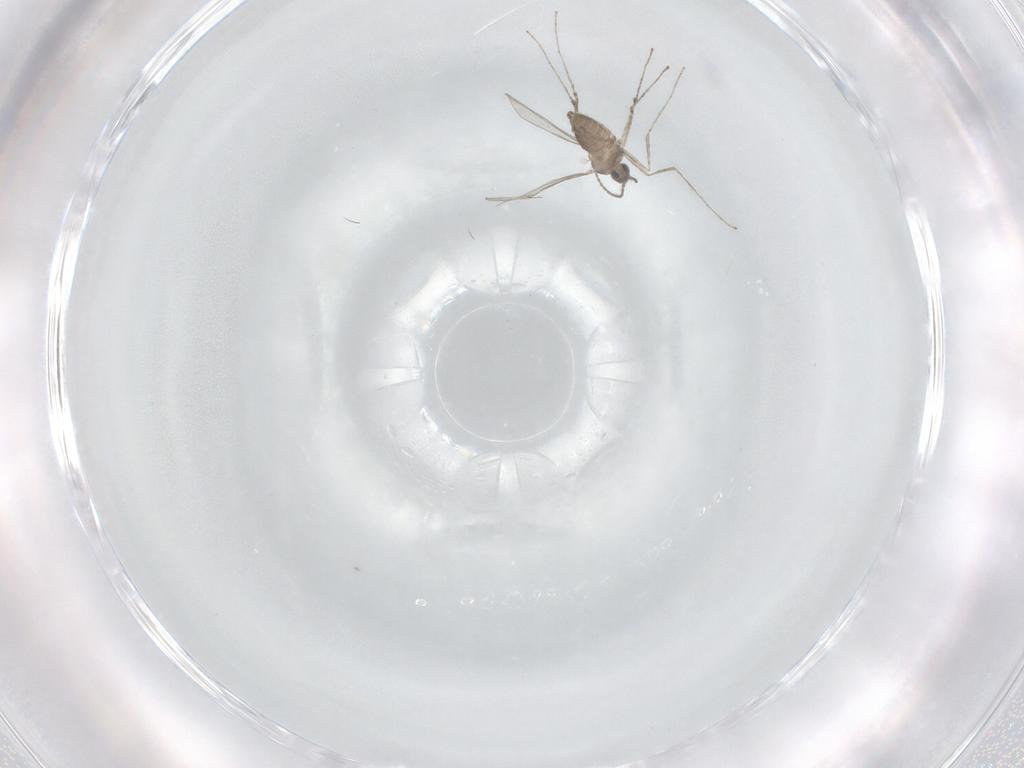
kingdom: Animalia
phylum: Arthropoda
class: Insecta
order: Diptera
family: Cecidomyiidae
